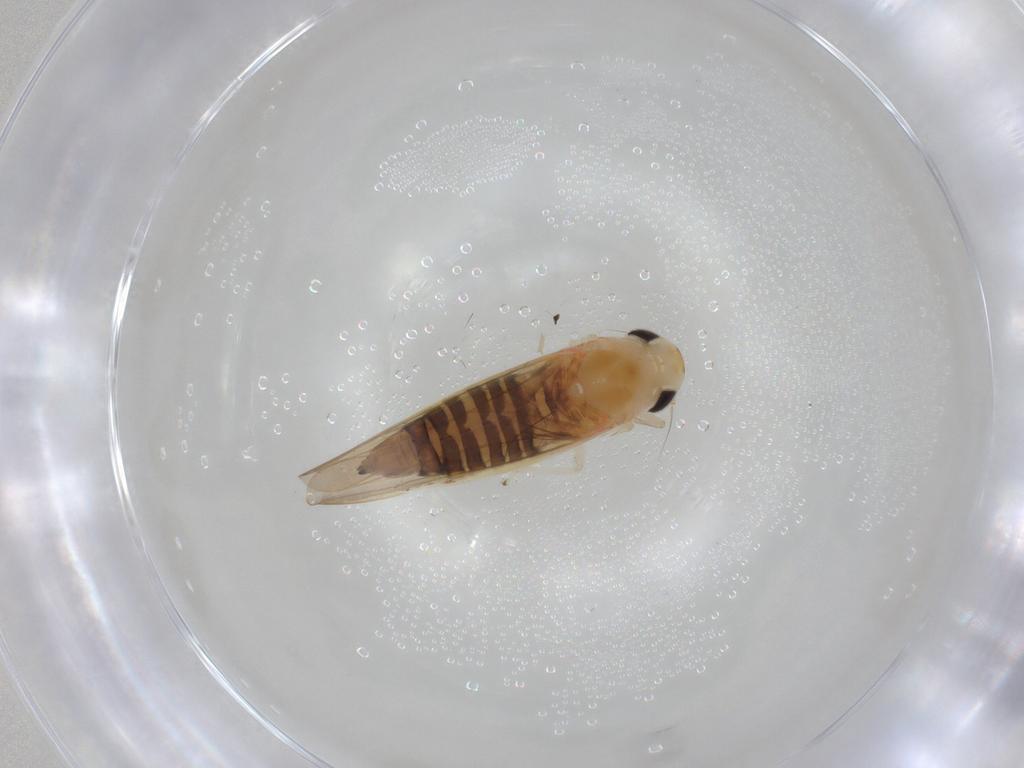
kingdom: Animalia
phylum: Arthropoda
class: Insecta
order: Hemiptera
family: Cicadellidae
